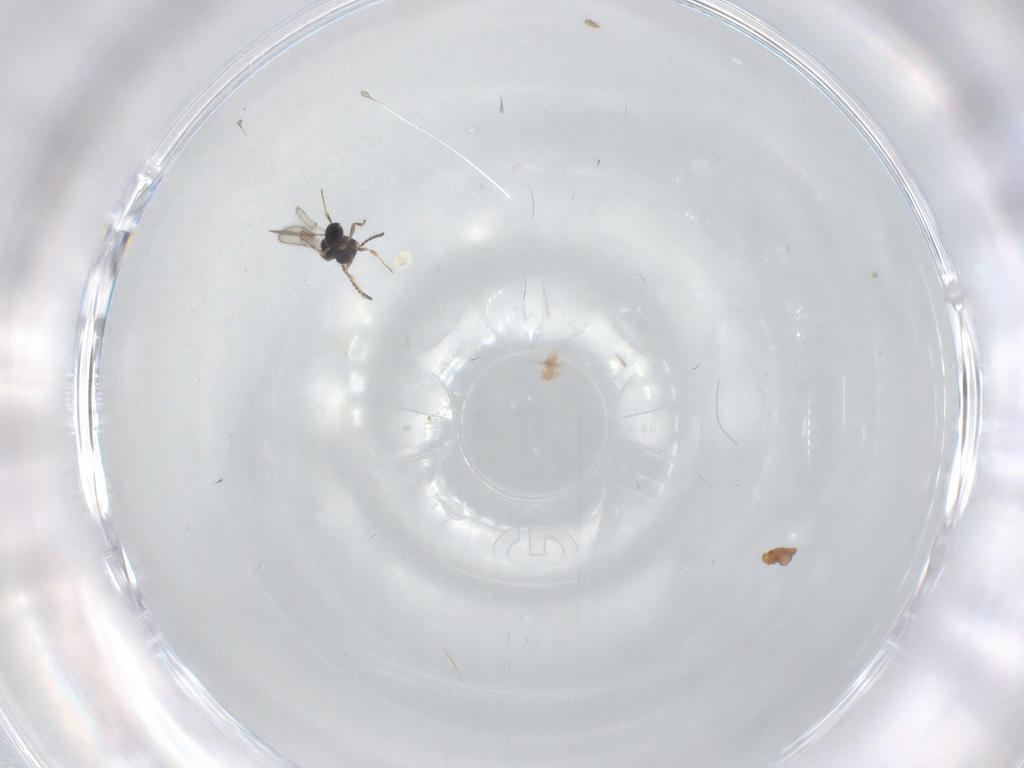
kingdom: Animalia
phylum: Arthropoda
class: Insecta
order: Hymenoptera
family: Scelionidae
